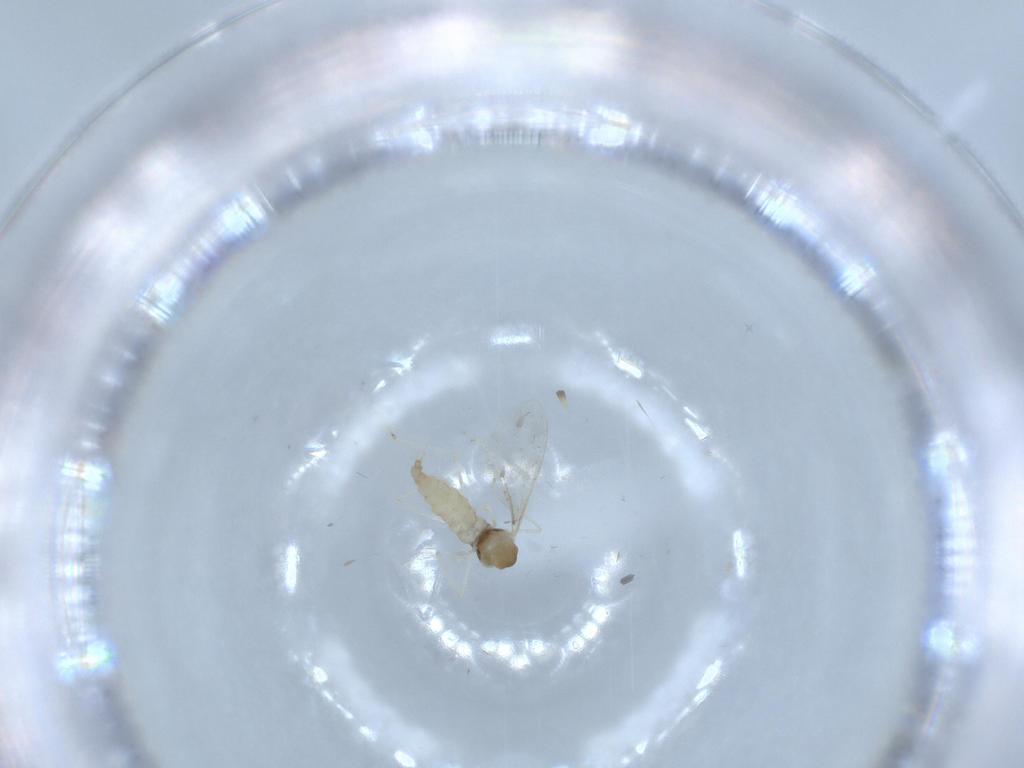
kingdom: Animalia
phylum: Arthropoda
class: Insecta
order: Diptera
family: Cecidomyiidae
